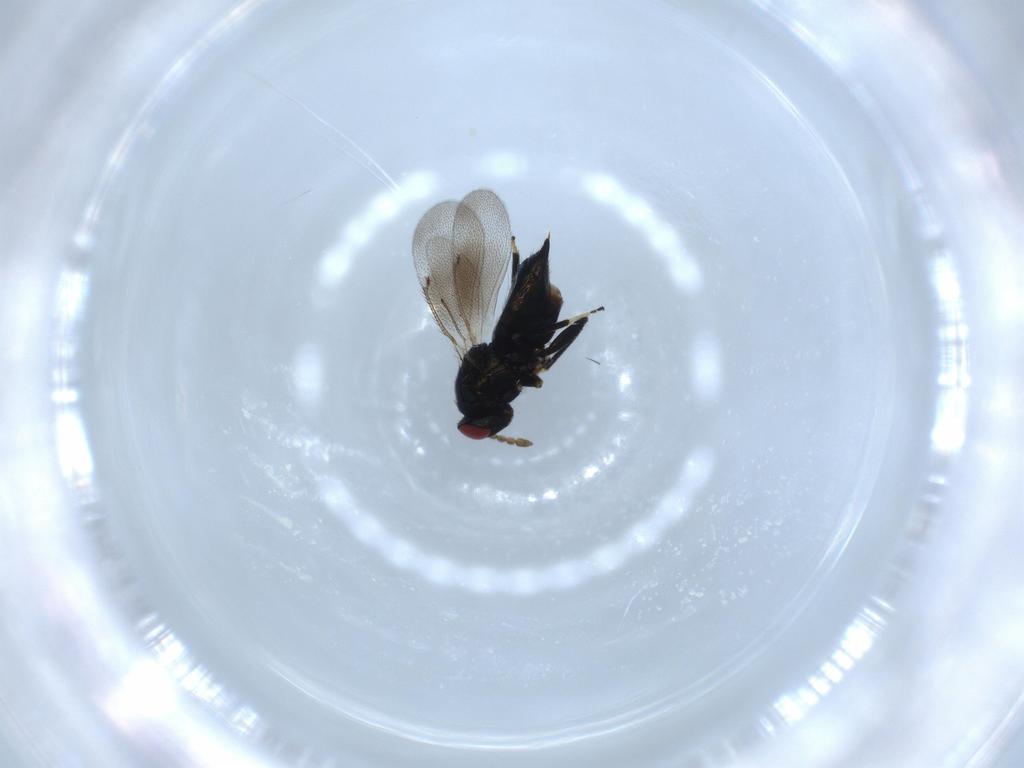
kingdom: Animalia
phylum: Arthropoda
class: Insecta
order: Hymenoptera
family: Eulophidae
